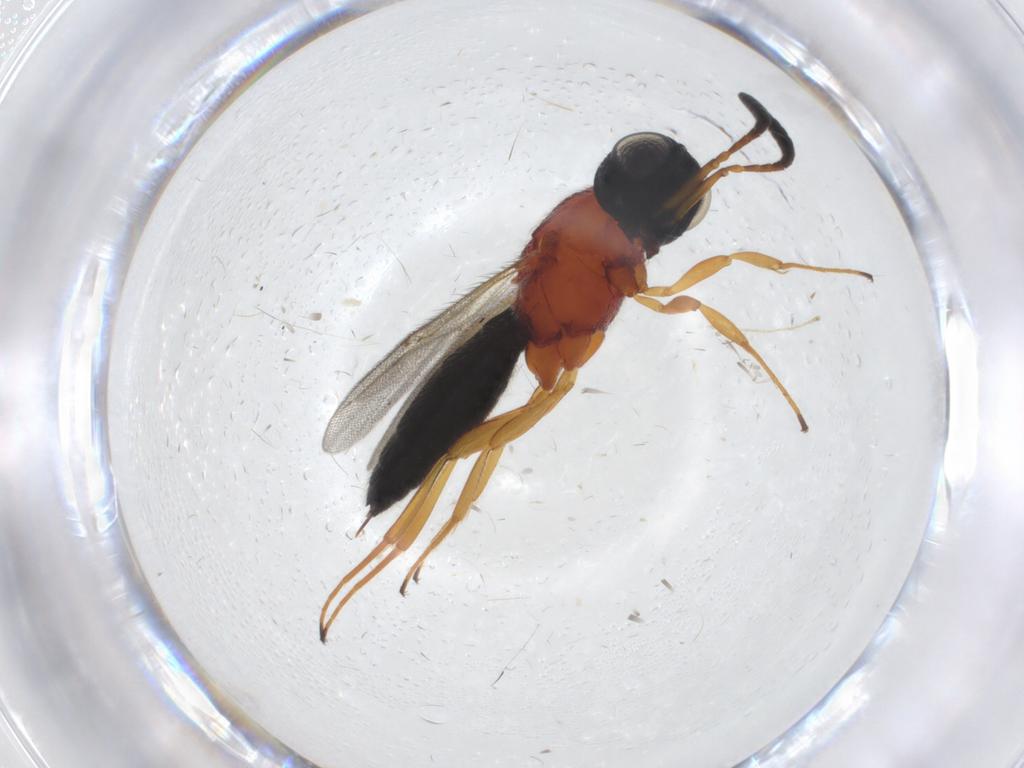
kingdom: Animalia
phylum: Arthropoda
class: Insecta
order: Hymenoptera
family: Scelionidae
